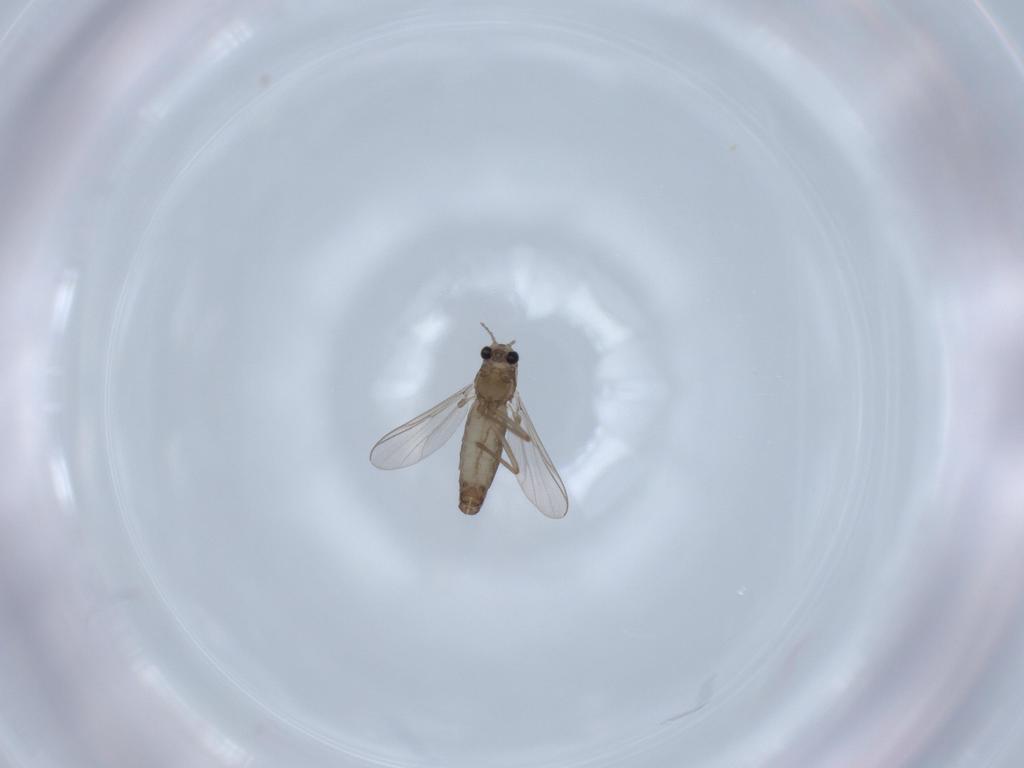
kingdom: Animalia
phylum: Arthropoda
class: Insecta
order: Diptera
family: Chironomidae
